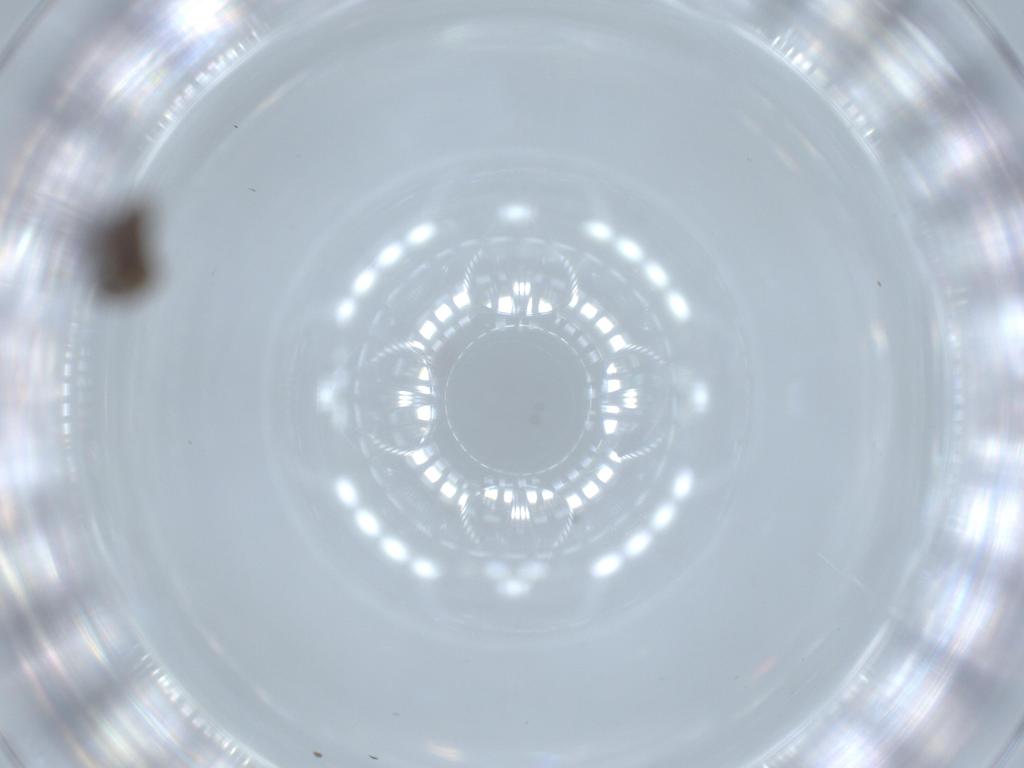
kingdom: Animalia
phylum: Arthropoda
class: Insecta
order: Diptera
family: Psychodidae
